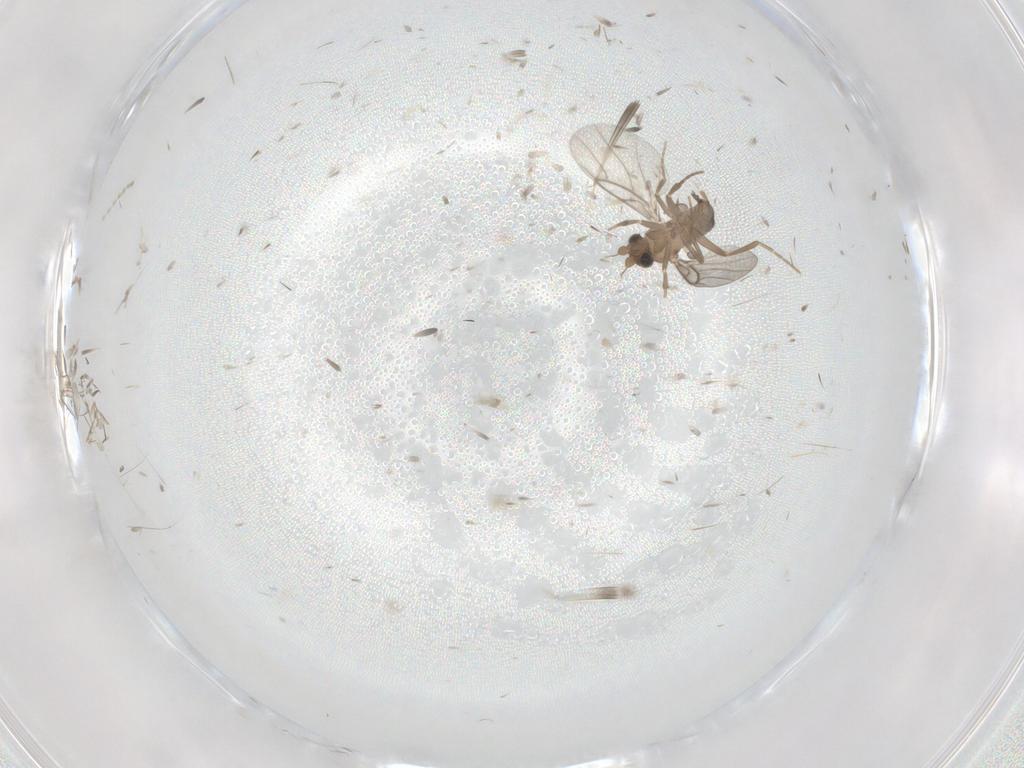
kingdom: Animalia
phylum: Arthropoda
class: Insecta
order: Diptera
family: Cecidomyiidae
